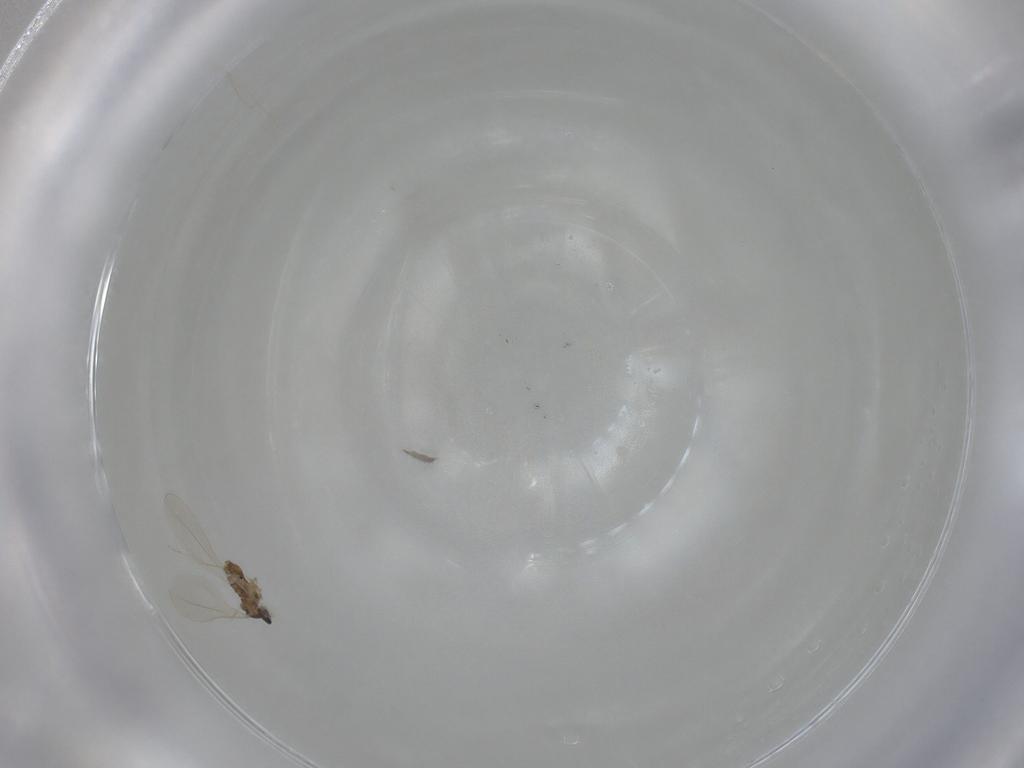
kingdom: Animalia
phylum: Arthropoda
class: Insecta
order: Diptera
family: Cecidomyiidae
